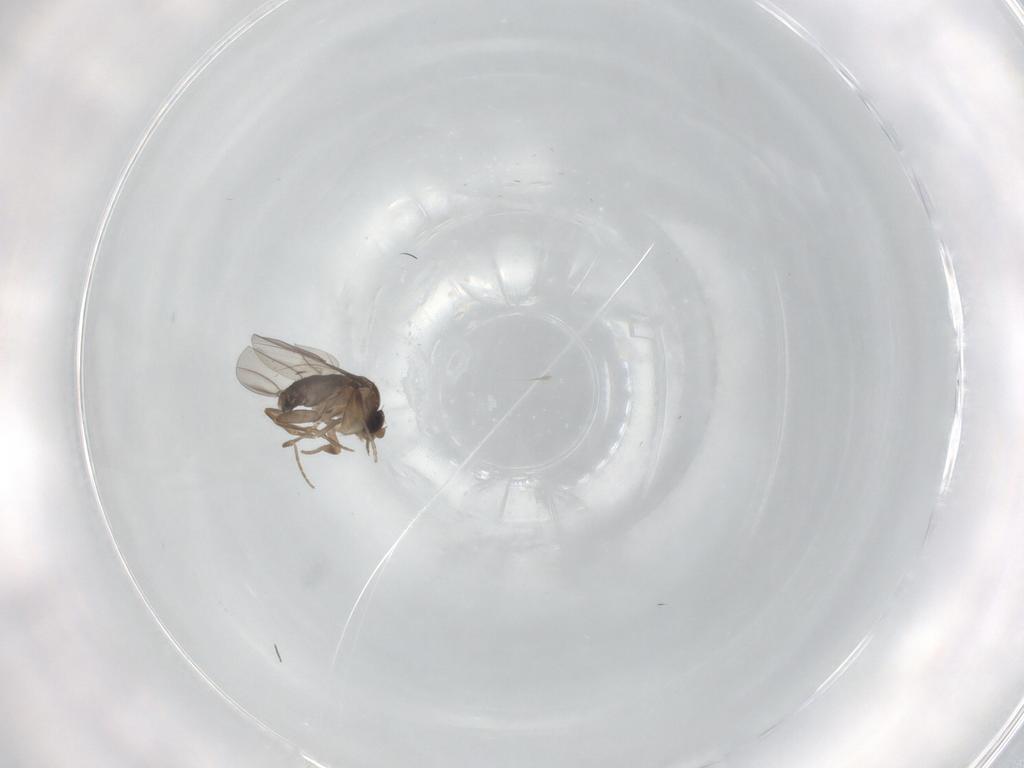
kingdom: Animalia
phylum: Arthropoda
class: Insecta
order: Diptera
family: Phoridae
